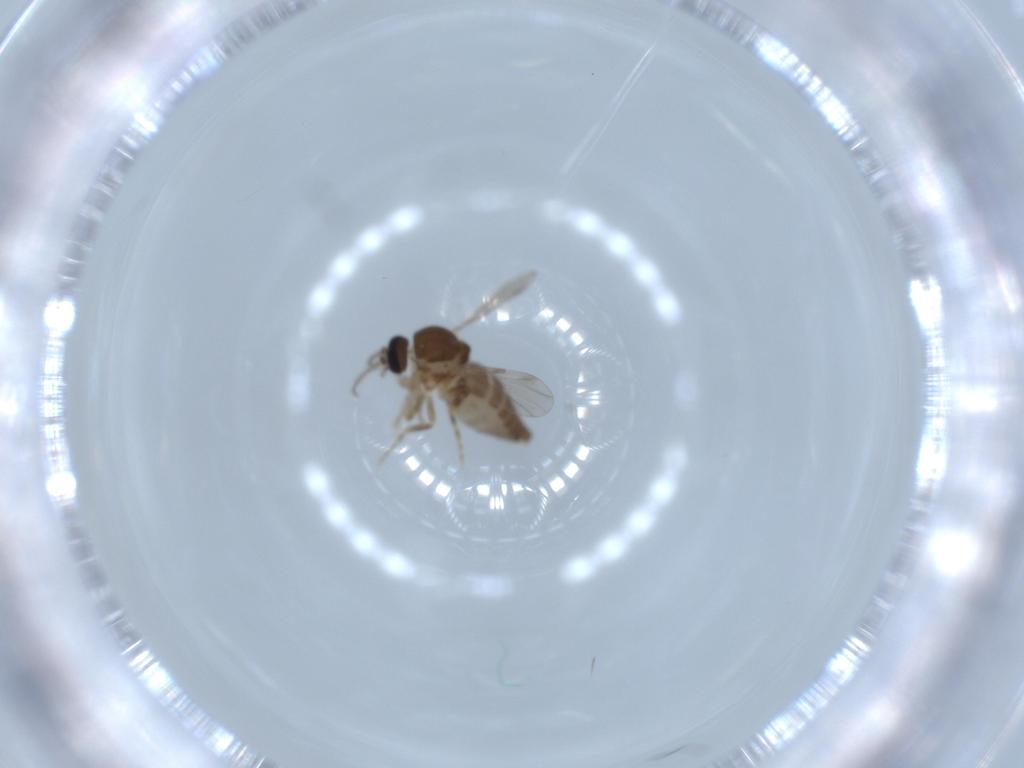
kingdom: Animalia
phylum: Arthropoda
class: Insecta
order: Diptera
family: Ceratopogonidae
